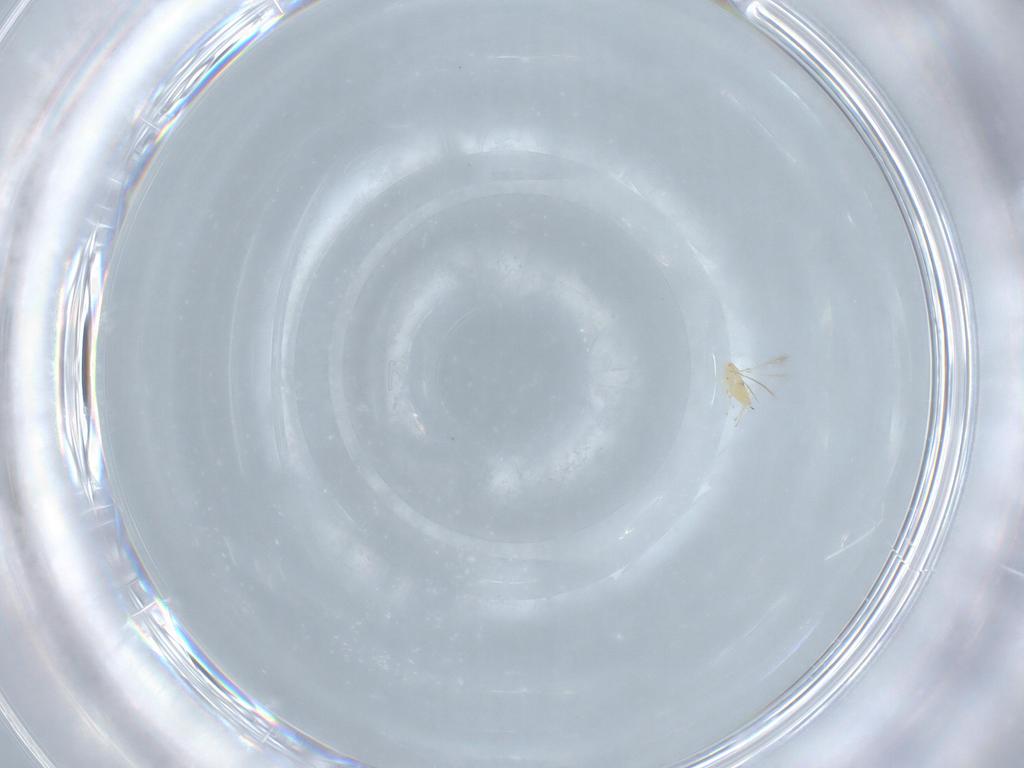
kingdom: Animalia
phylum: Arthropoda
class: Insecta
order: Hymenoptera
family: Mymaridae
